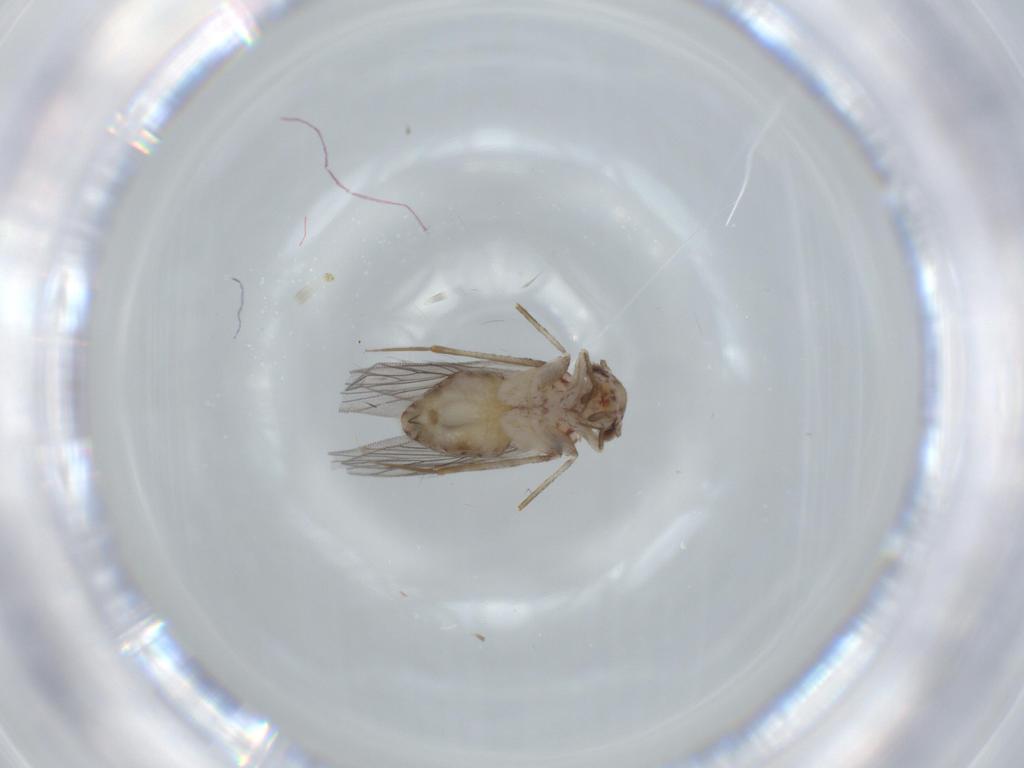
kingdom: Animalia
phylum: Arthropoda
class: Insecta
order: Psocodea
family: Lepidopsocidae
